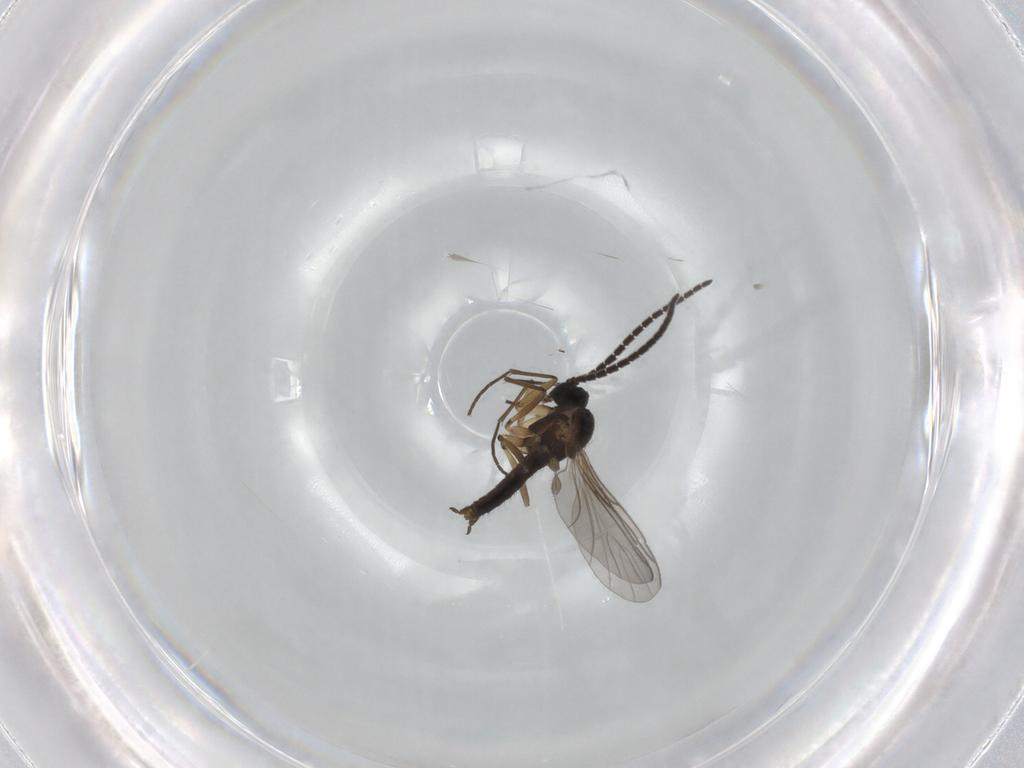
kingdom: Animalia
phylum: Arthropoda
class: Insecta
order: Diptera
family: Sciaridae
